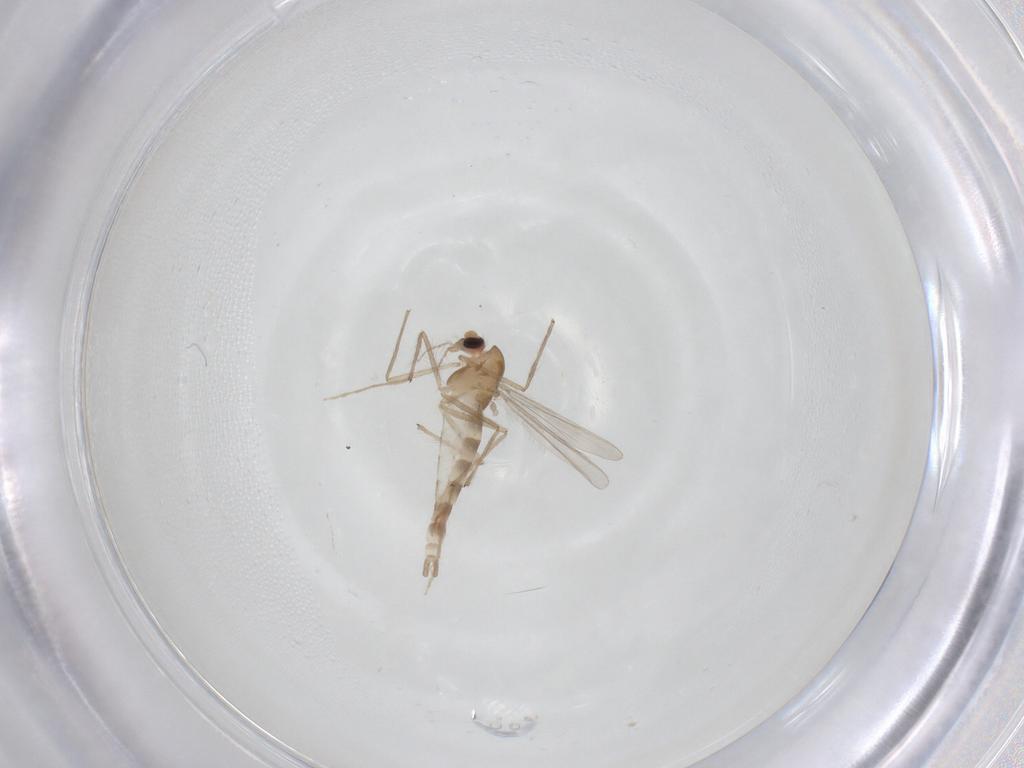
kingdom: Animalia
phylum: Arthropoda
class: Insecta
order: Diptera
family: Chironomidae
